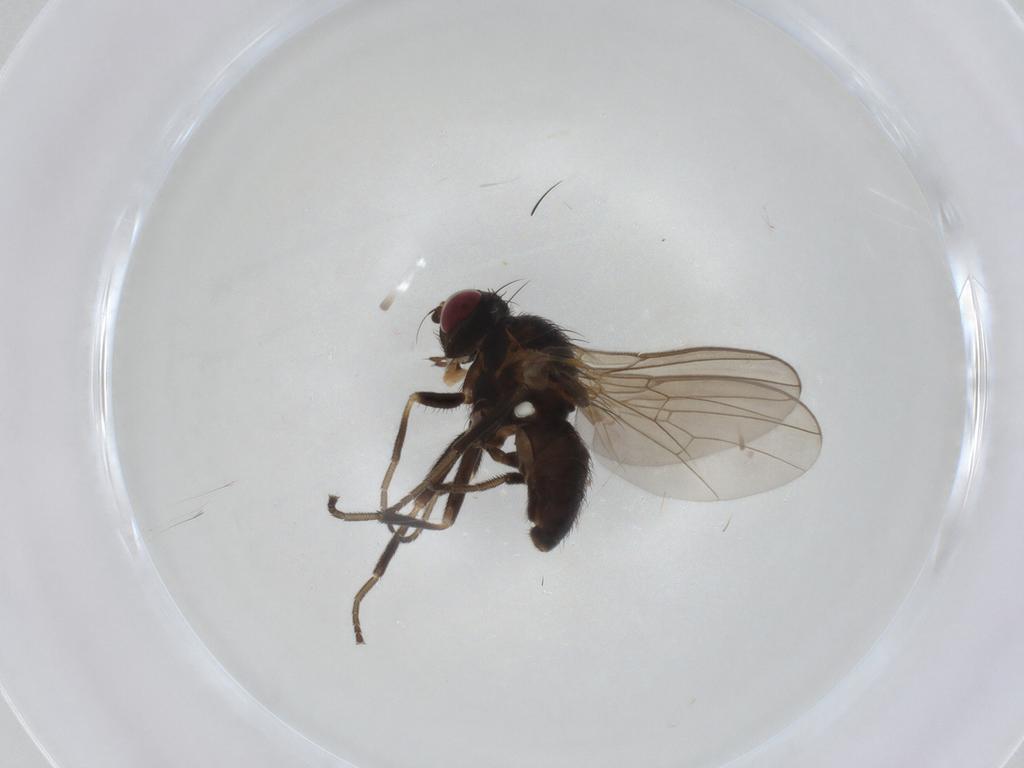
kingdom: Animalia
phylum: Arthropoda
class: Insecta
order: Diptera
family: Agromyzidae
